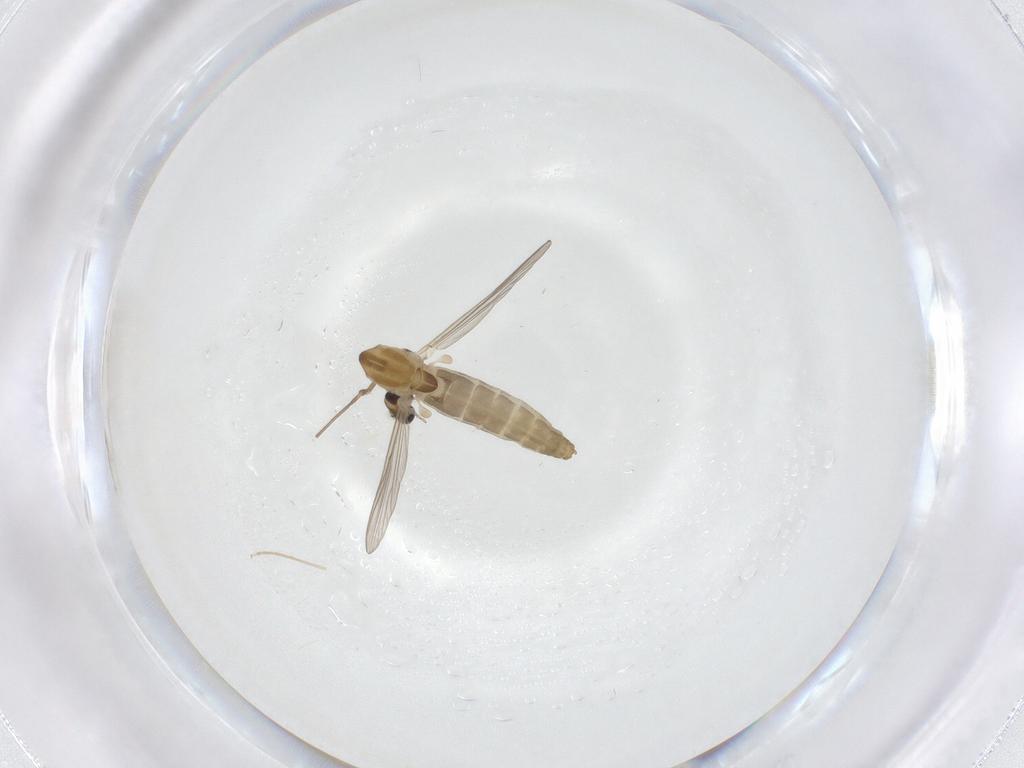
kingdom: Animalia
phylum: Arthropoda
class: Insecta
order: Diptera
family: Chironomidae
